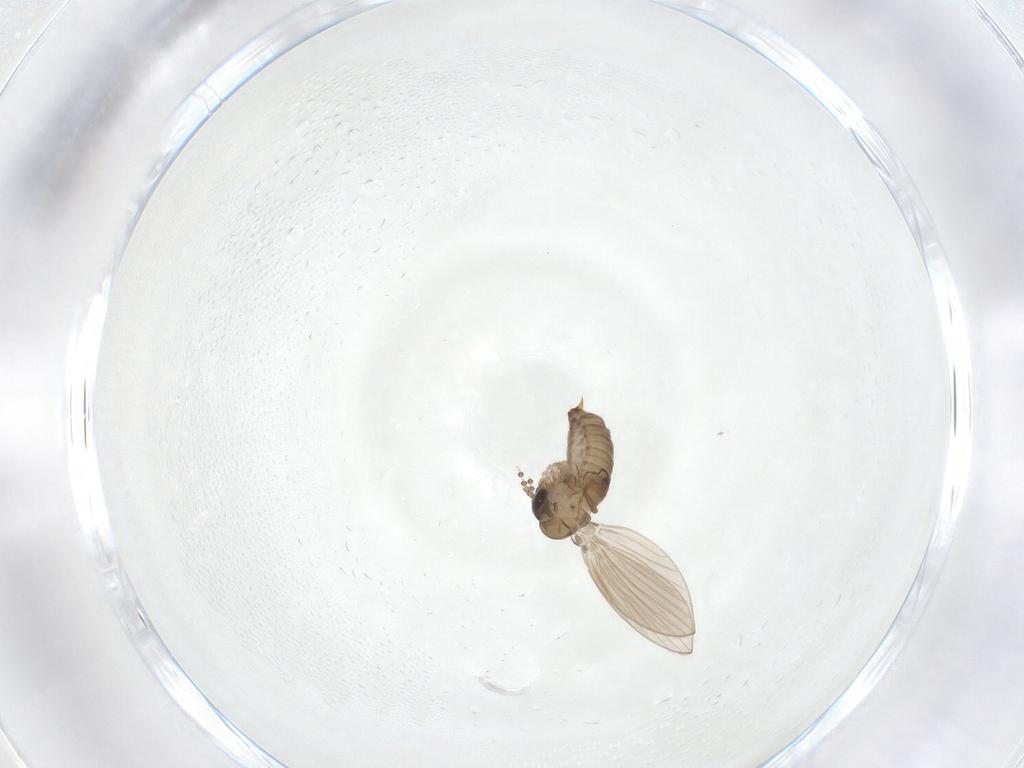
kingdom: Animalia
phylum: Arthropoda
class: Insecta
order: Diptera
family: Psychodidae
